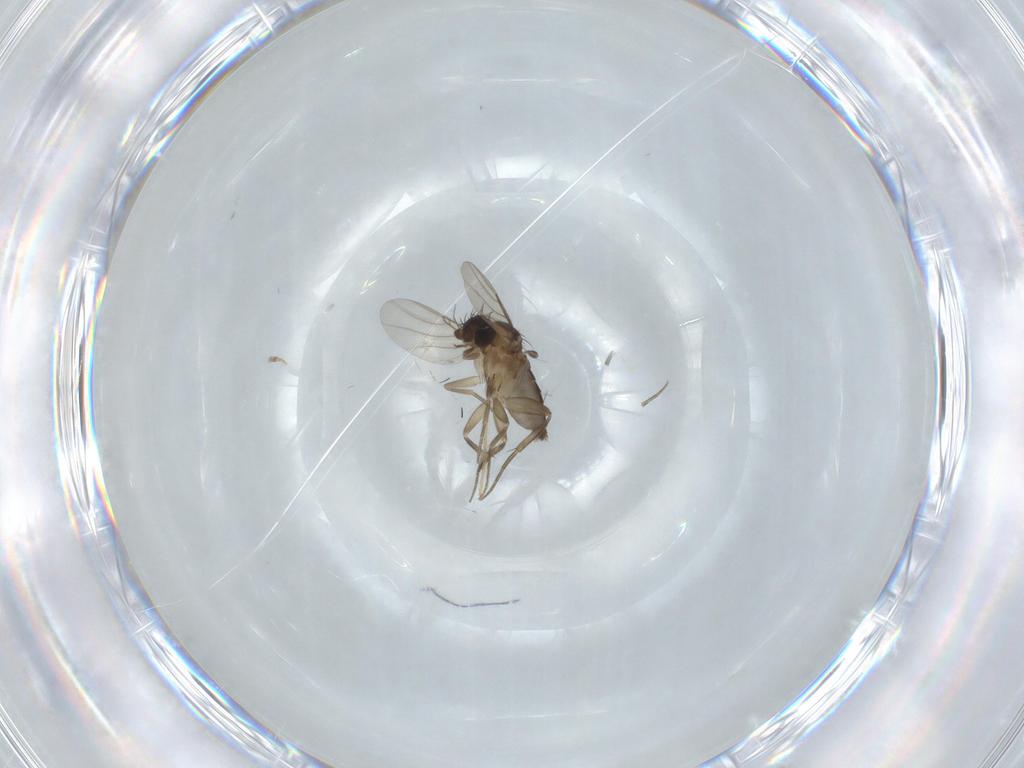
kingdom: Animalia
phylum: Arthropoda
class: Insecta
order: Diptera
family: Phoridae
